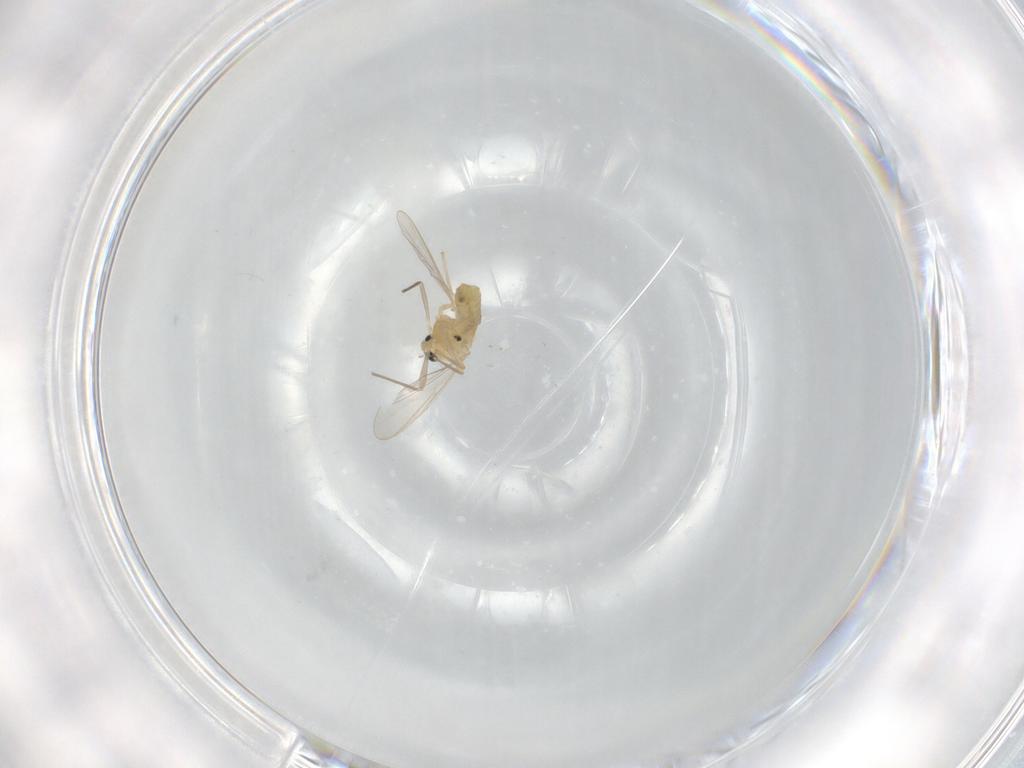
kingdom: Animalia
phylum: Arthropoda
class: Insecta
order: Diptera
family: Chironomidae
